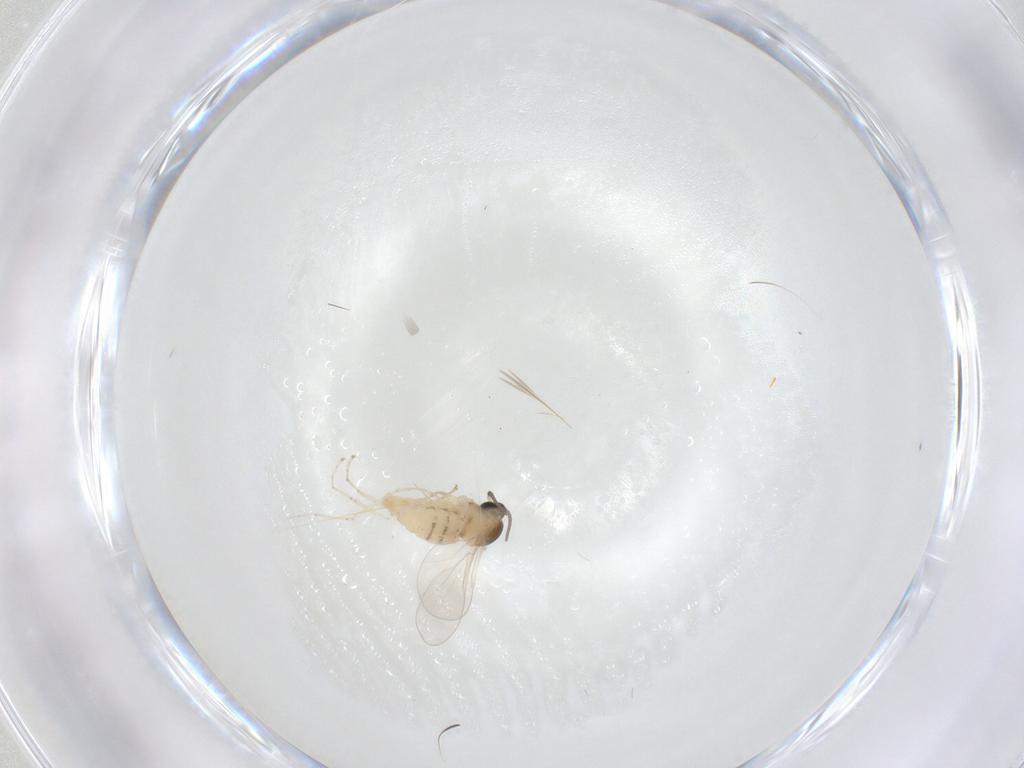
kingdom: Animalia
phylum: Arthropoda
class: Insecta
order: Diptera
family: Cecidomyiidae
